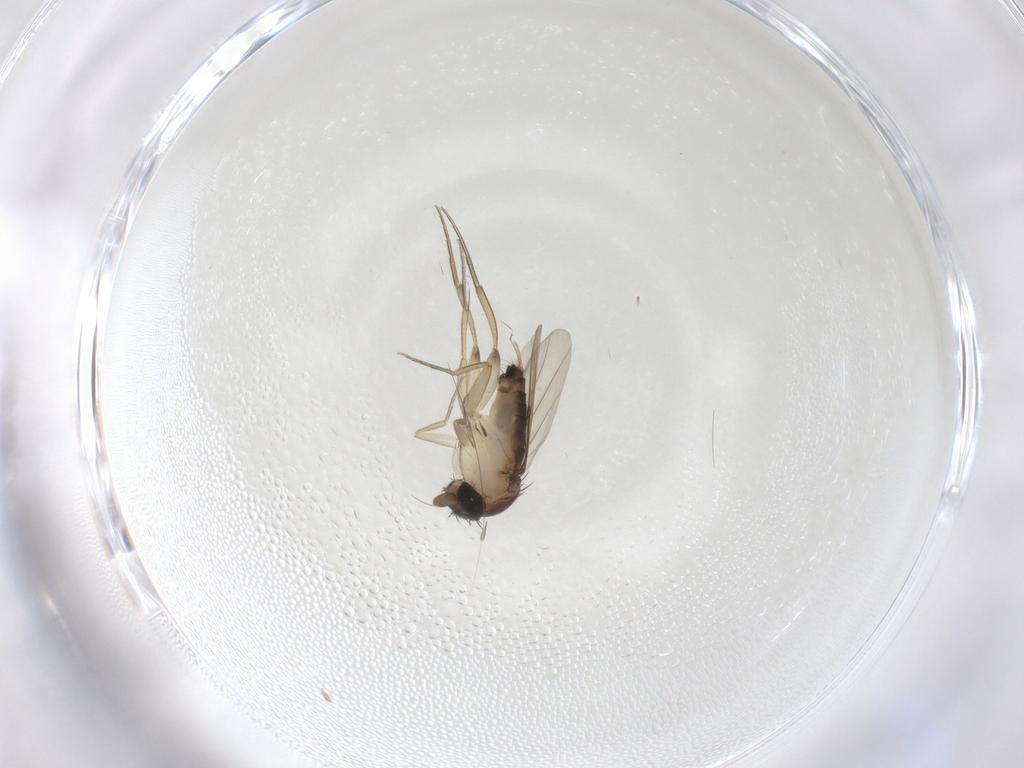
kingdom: Animalia
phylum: Arthropoda
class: Insecta
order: Diptera
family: Phoridae
